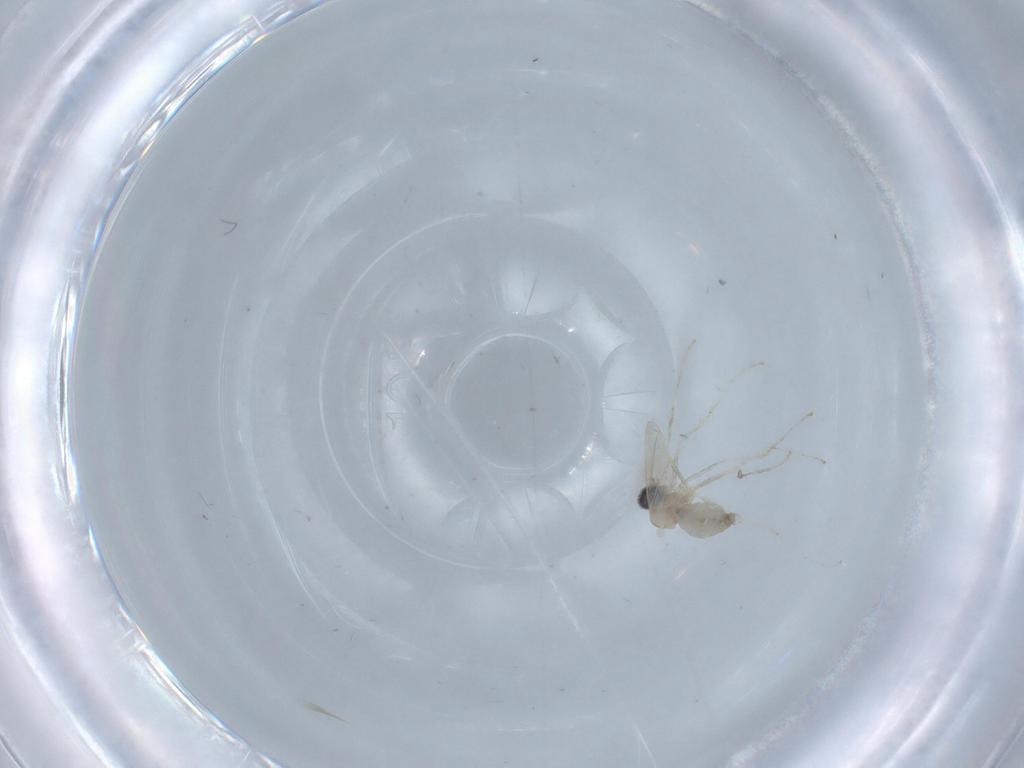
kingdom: Animalia
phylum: Arthropoda
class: Insecta
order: Diptera
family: Cecidomyiidae
